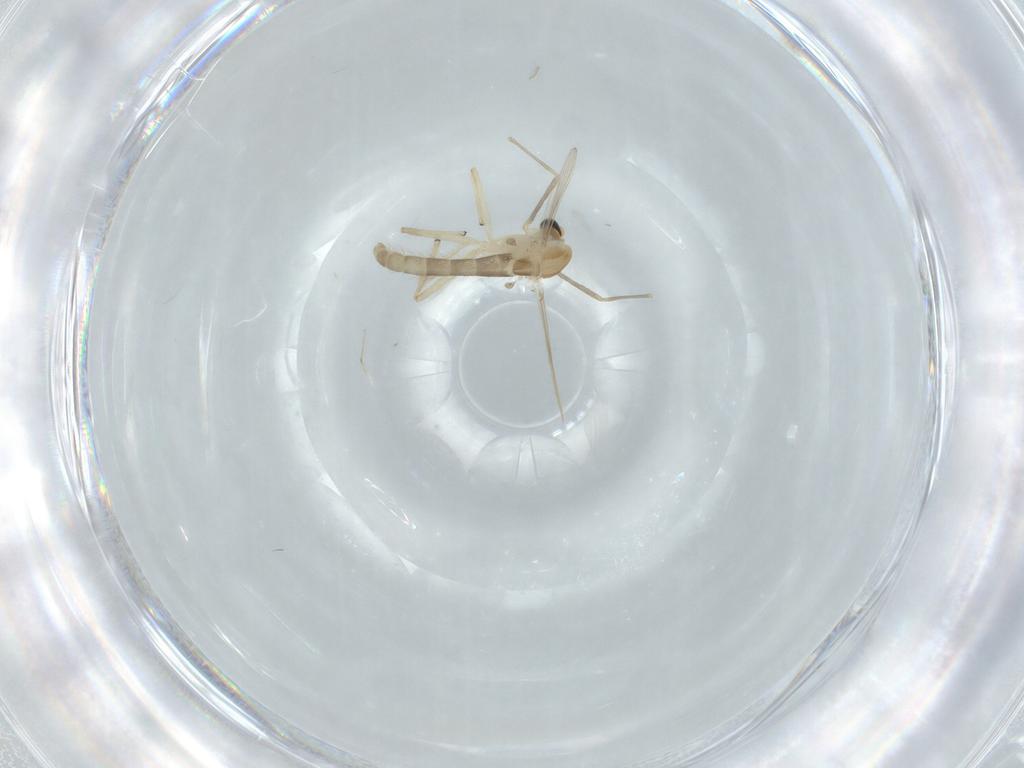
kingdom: Animalia
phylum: Arthropoda
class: Insecta
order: Diptera
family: Chironomidae
